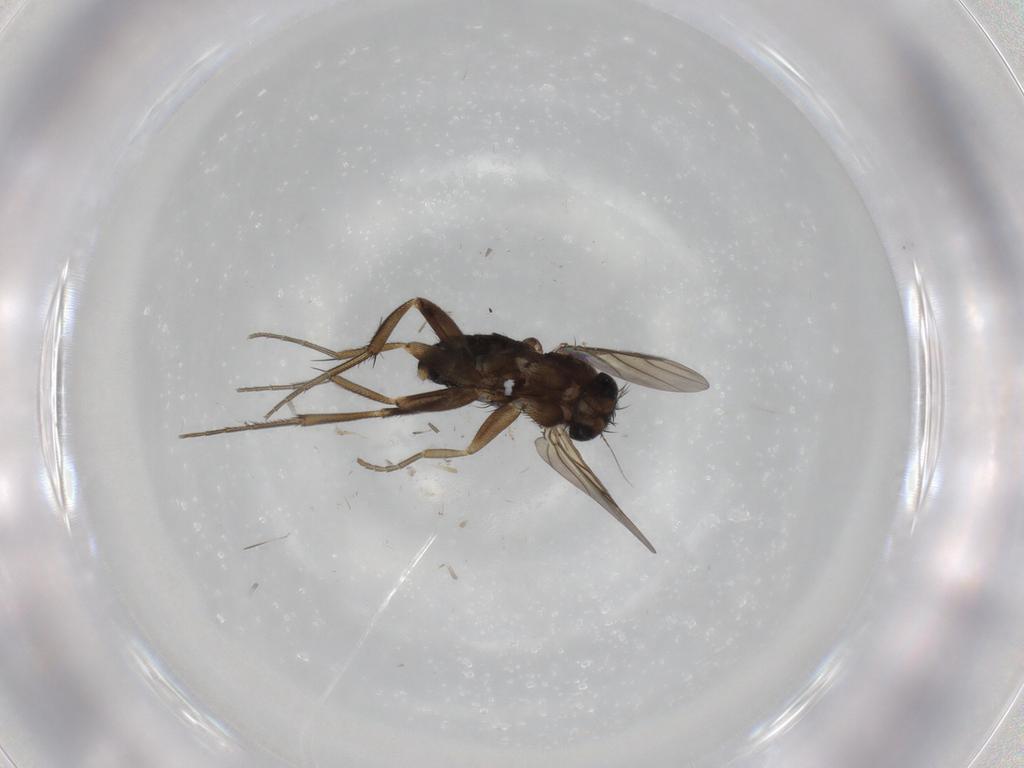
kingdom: Animalia
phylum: Arthropoda
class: Insecta
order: Diptera
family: Phoridae
